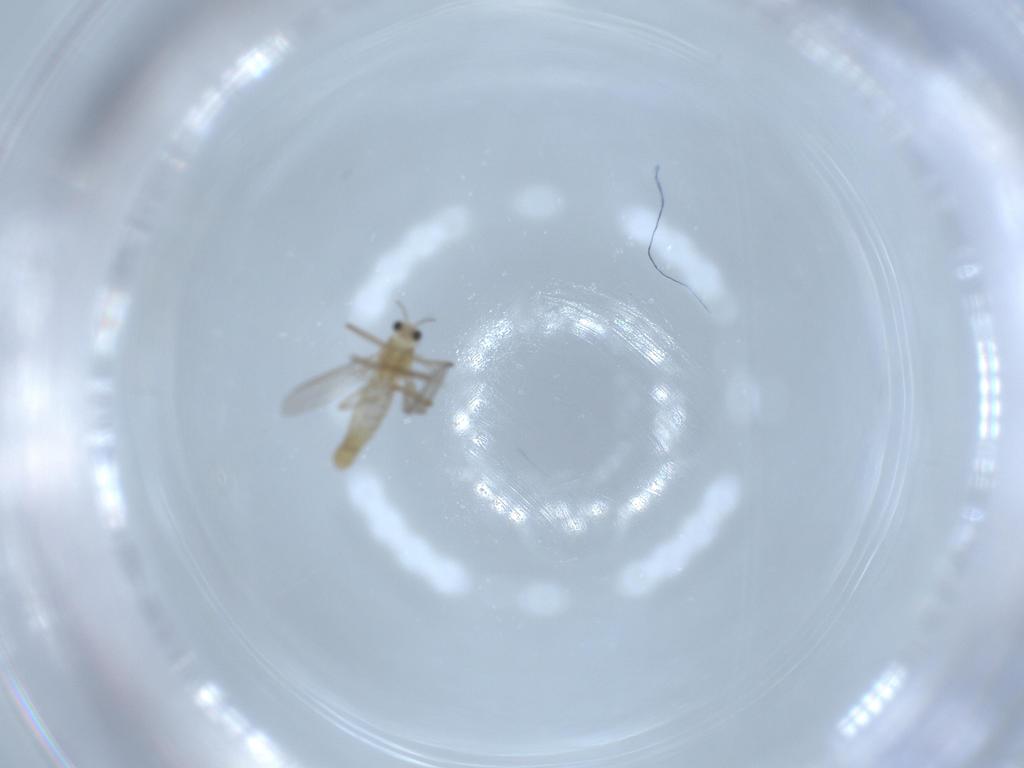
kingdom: Animalia
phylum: Arthropoda
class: Insecta
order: Diptera
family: Chironomidae
